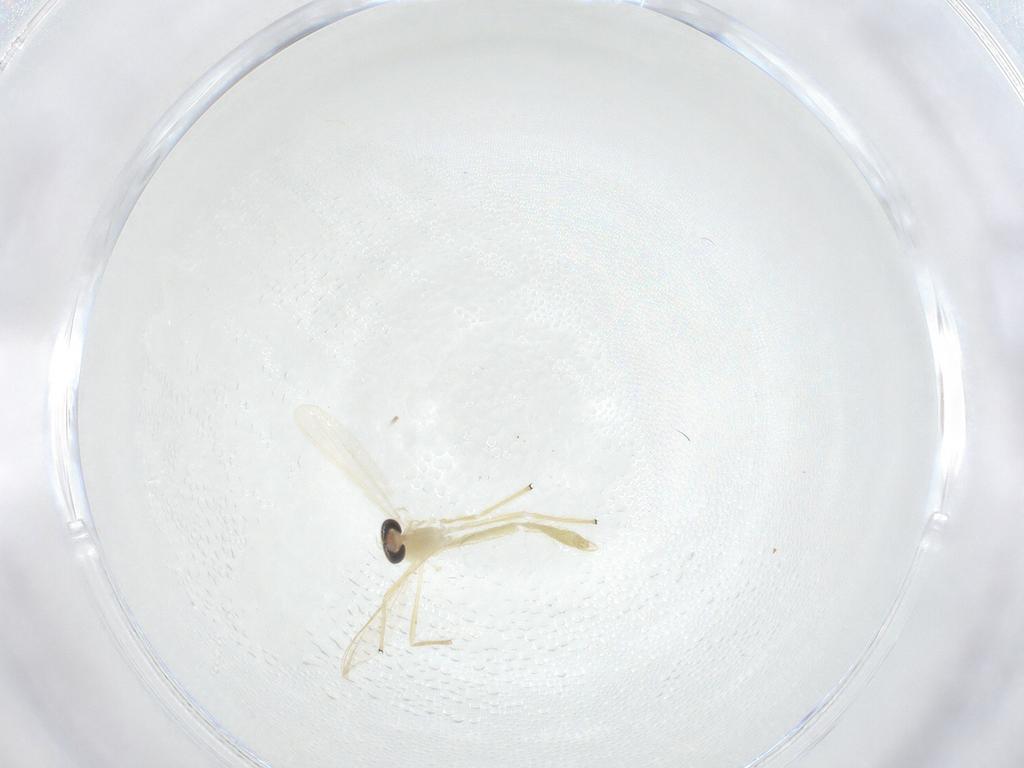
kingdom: Animalia
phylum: Arthropoda
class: Insecta
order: Diptera
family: Chironomidae
